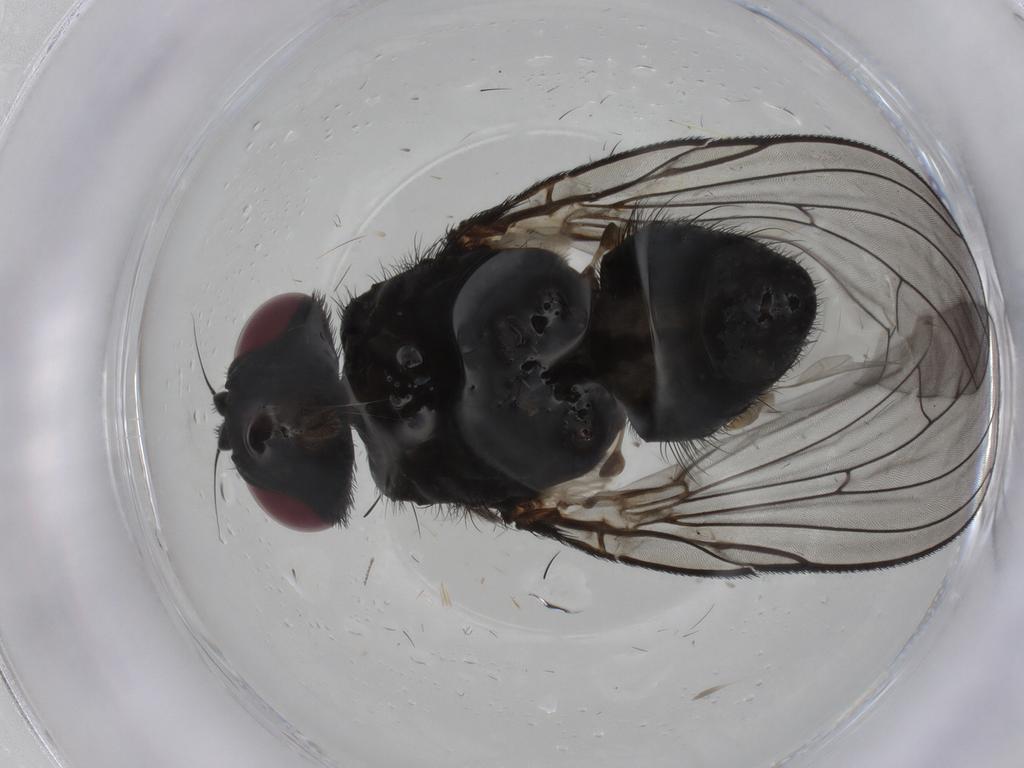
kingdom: Animalia
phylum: Arthropoda
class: Insecta
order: Diptera
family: Fannia
